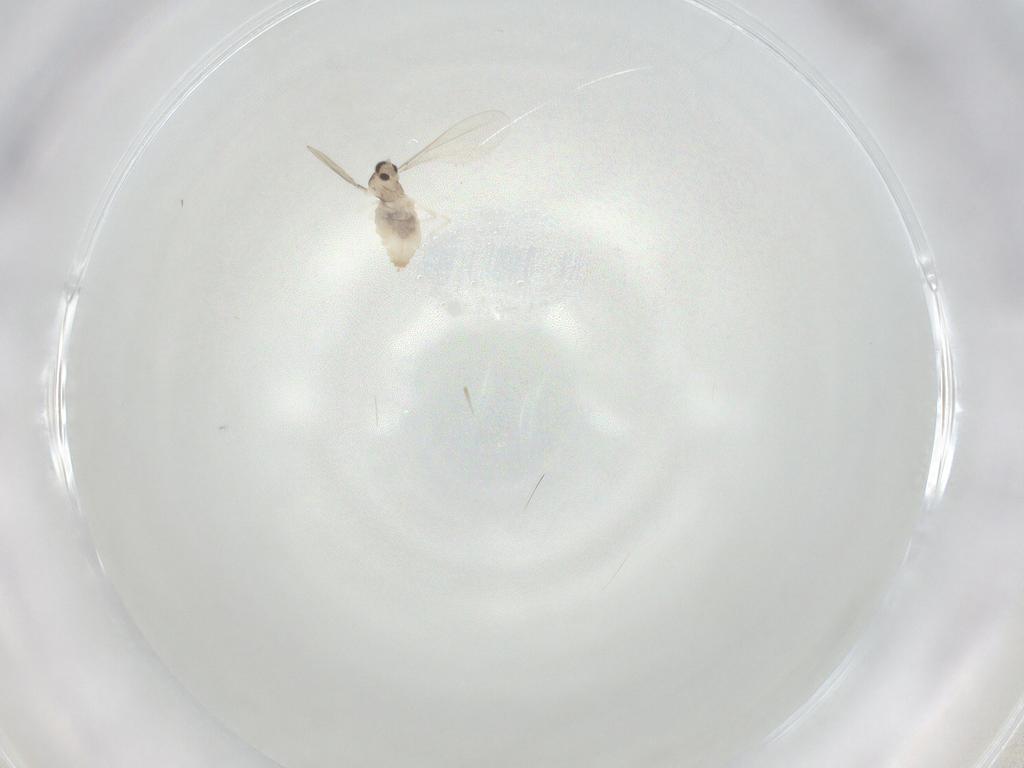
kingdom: Animalia
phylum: Arthropoda
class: Insecta
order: Diptera
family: Cecidomyiidae
